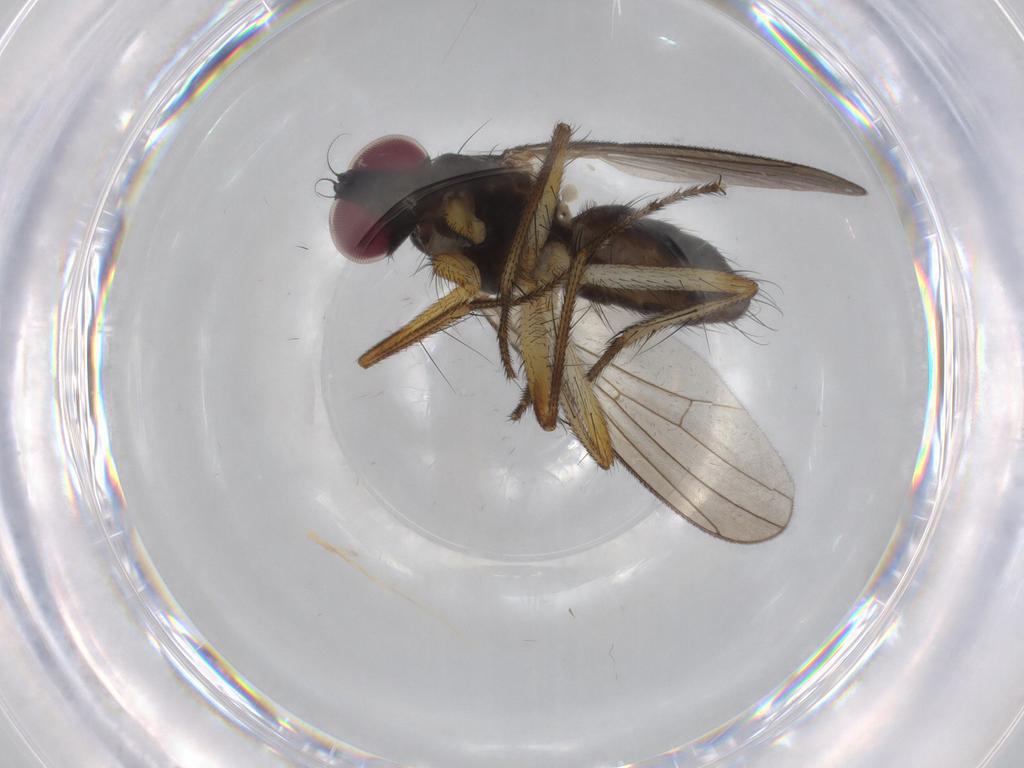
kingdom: Animalia
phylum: Arthropoda
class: Insecta
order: Diptera
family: Anthomyiidae
